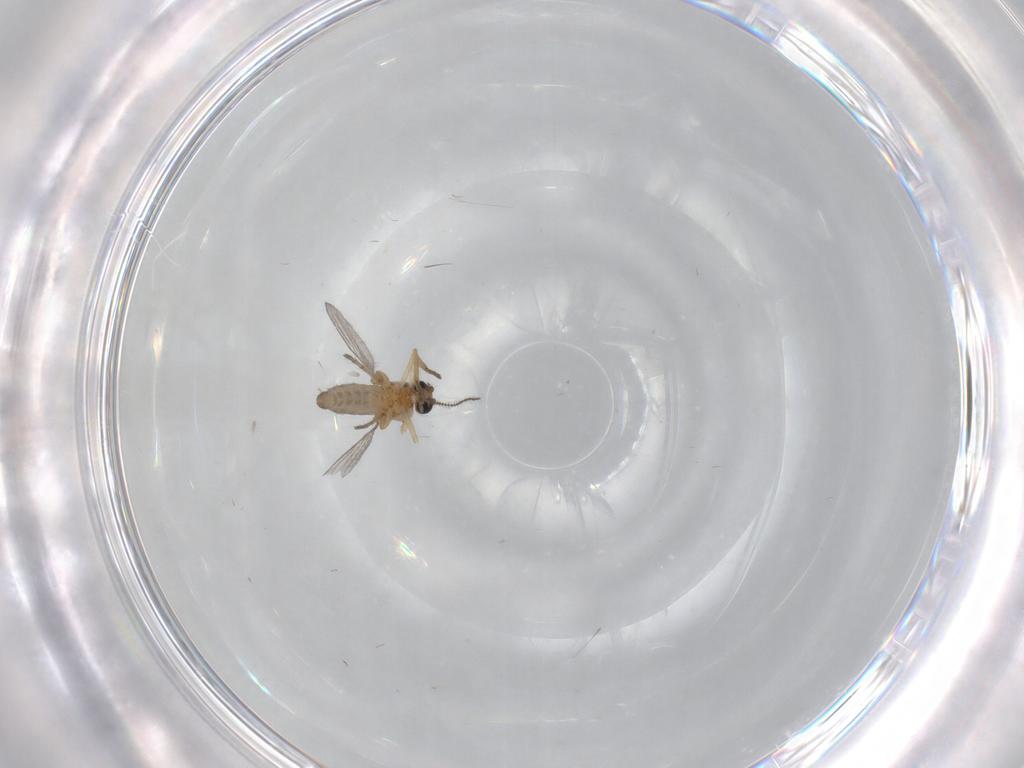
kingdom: Animalia
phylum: Arthropoda
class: Insecta
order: Diptera
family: Ceratopogonidae
